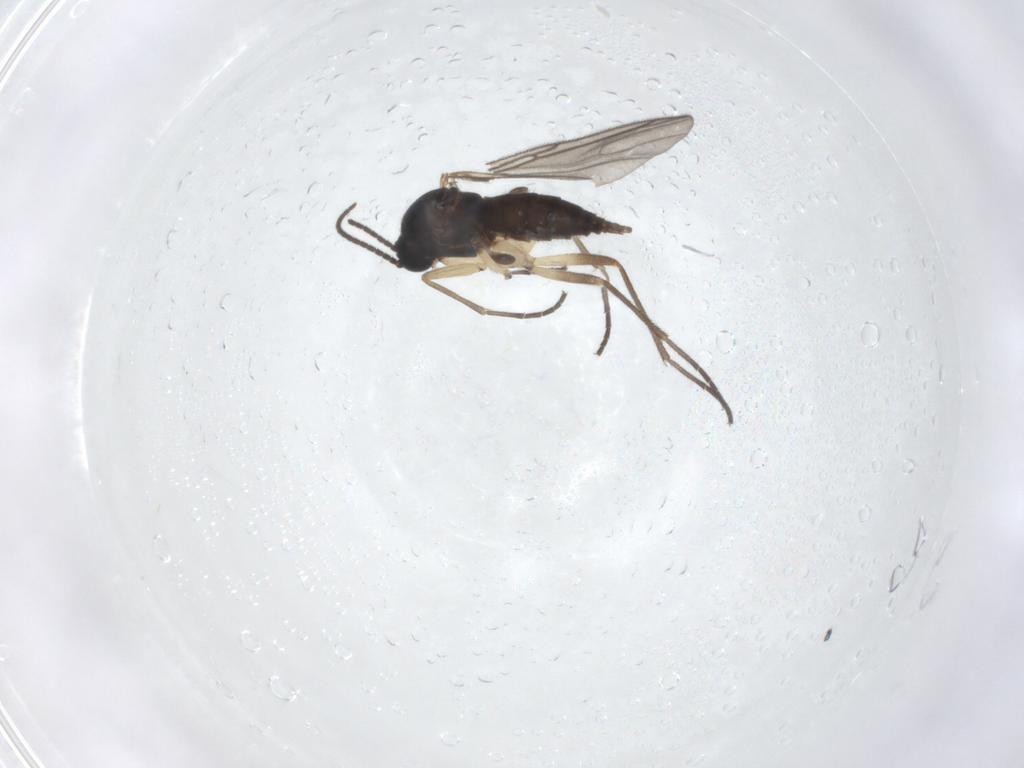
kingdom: Animalia
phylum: Arthropoda
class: Insecta
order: Diptera
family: Sciaridae
